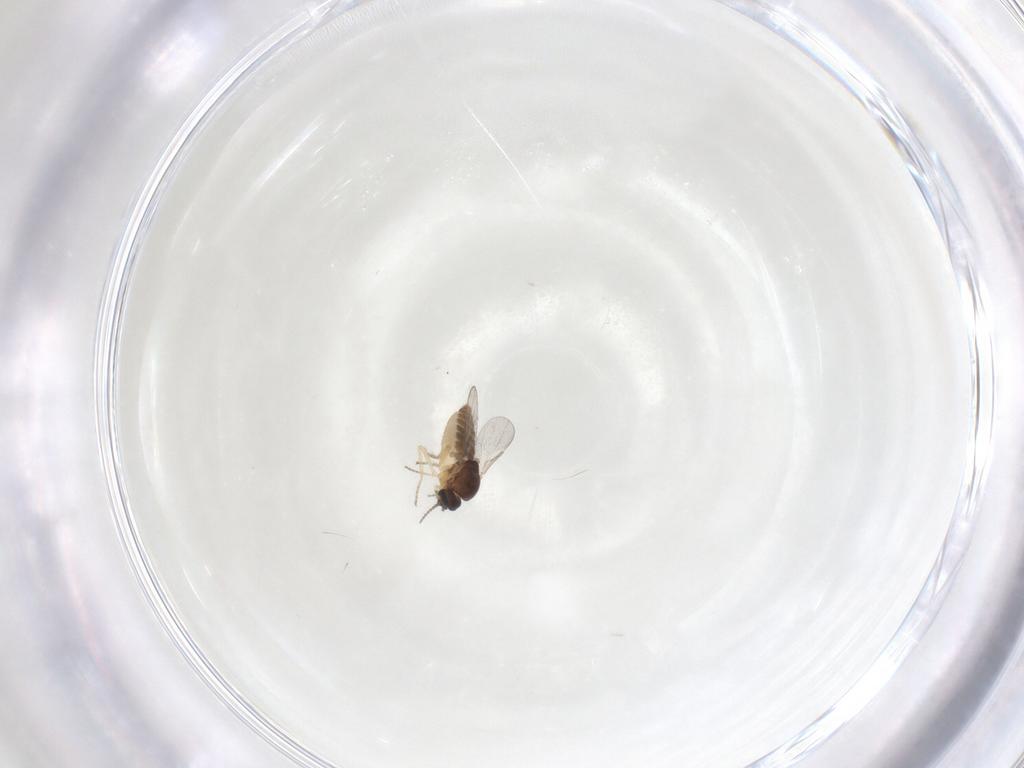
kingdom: Animalia
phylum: Arthropoda
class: Insecta
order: Diptera
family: Ceratopogonidae
